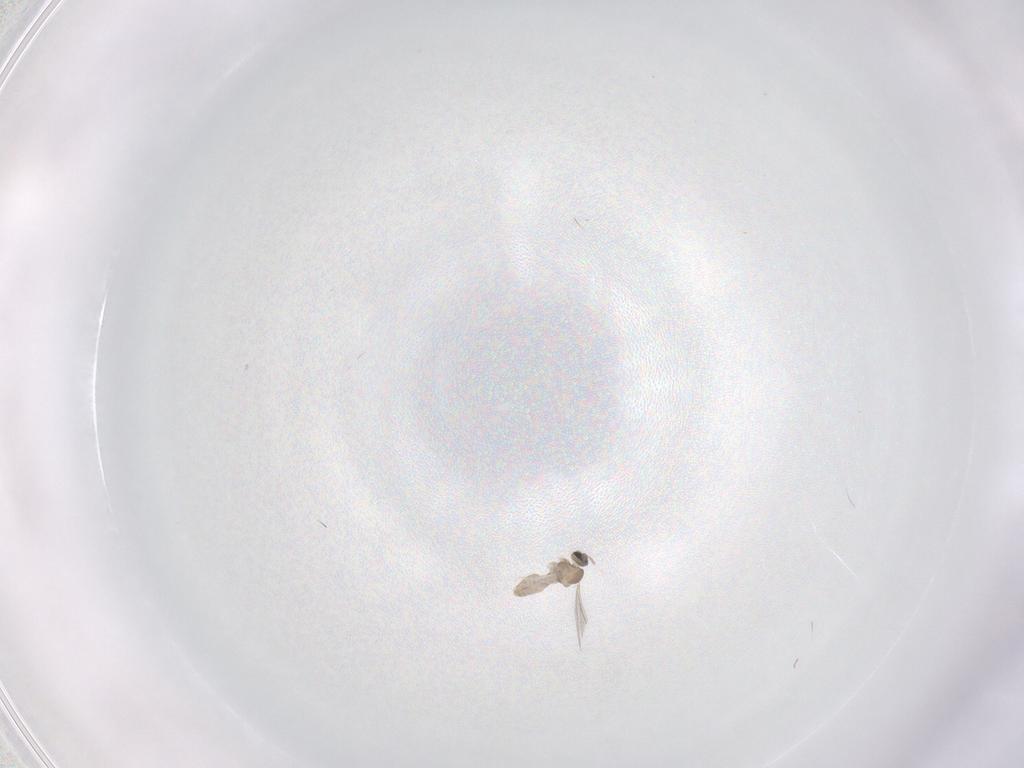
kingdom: Animalia
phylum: Arthropoda
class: Insecta
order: Diptera
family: Cecidomyiidae
